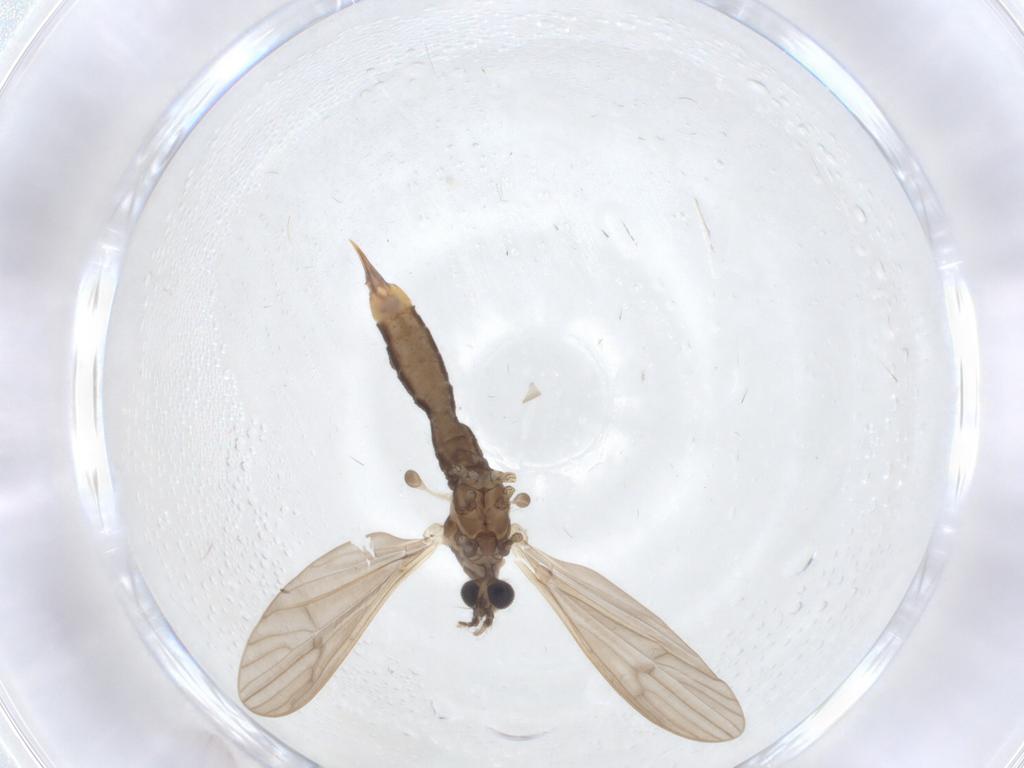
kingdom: Animalia
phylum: Arthropoda
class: Insecta
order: Diptera
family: Limoniidae
